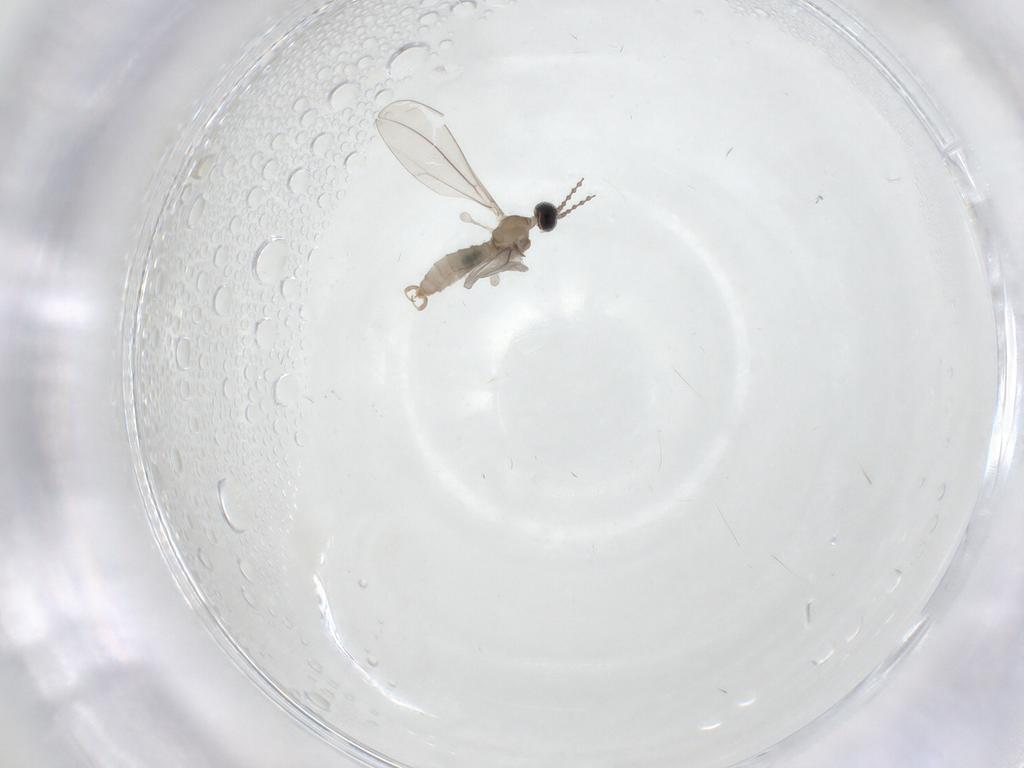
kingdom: Animalia
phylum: Arthropoda
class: Insecta
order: Diptera
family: Cecidomyiidae
